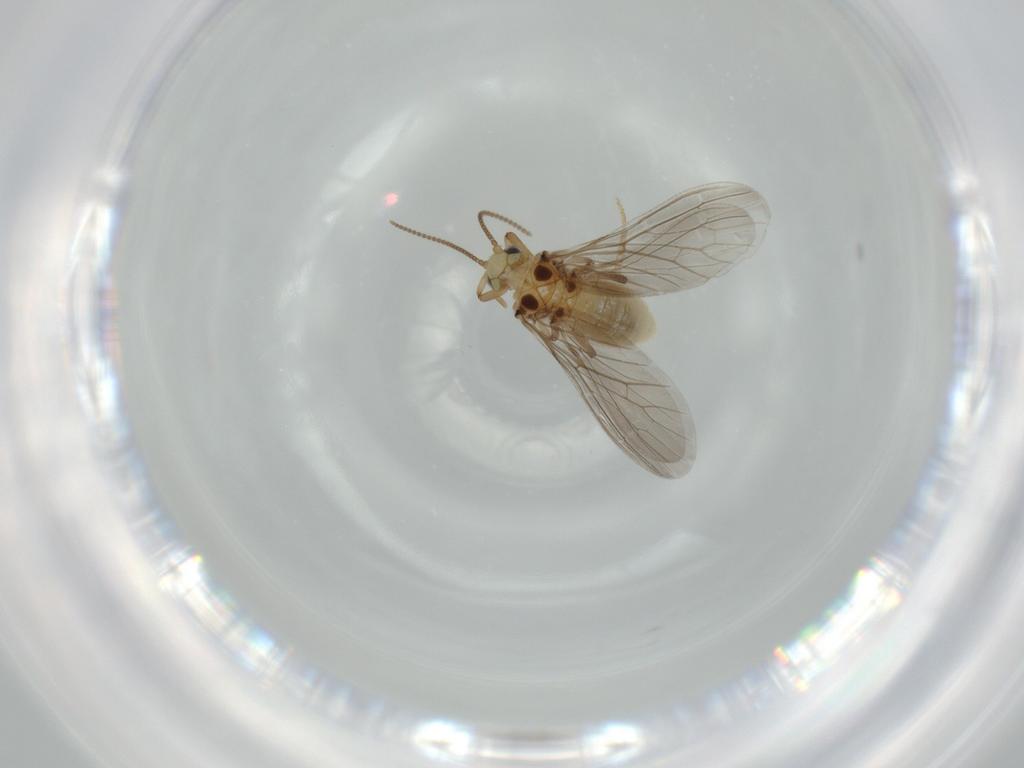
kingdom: Animalia
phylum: Arthropoda
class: Insecta
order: Neuroptera
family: Coniopterygidae
